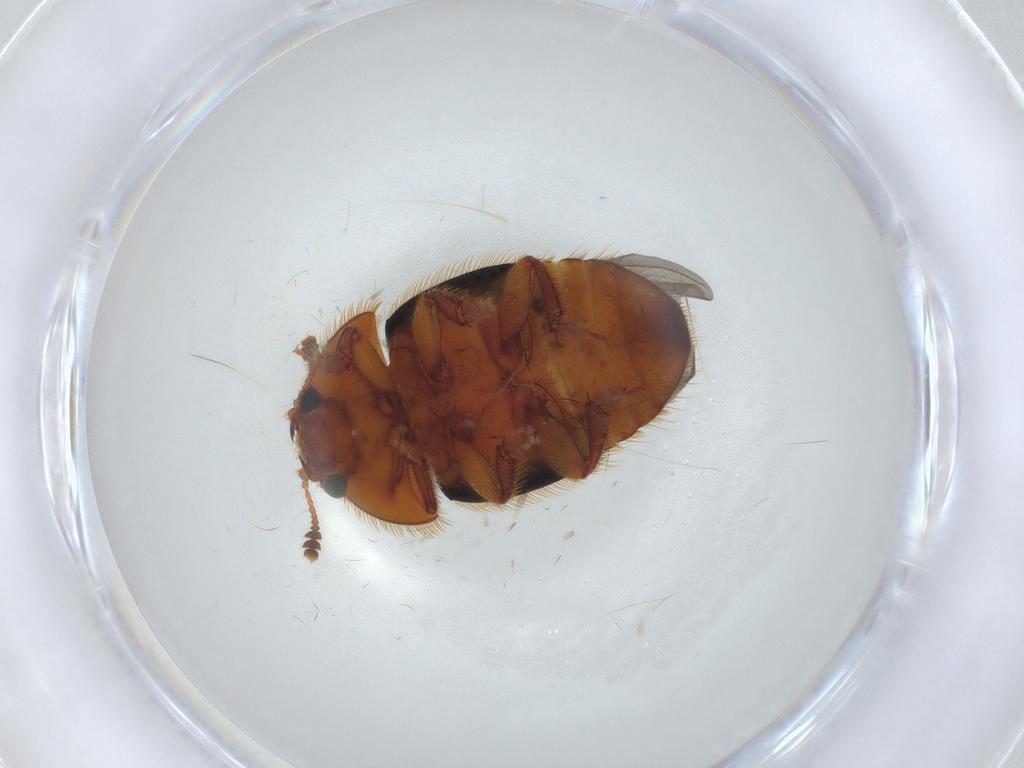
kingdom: Animalia
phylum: Arthropoda
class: Insecta
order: Coleoptera
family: Nitidulidae
